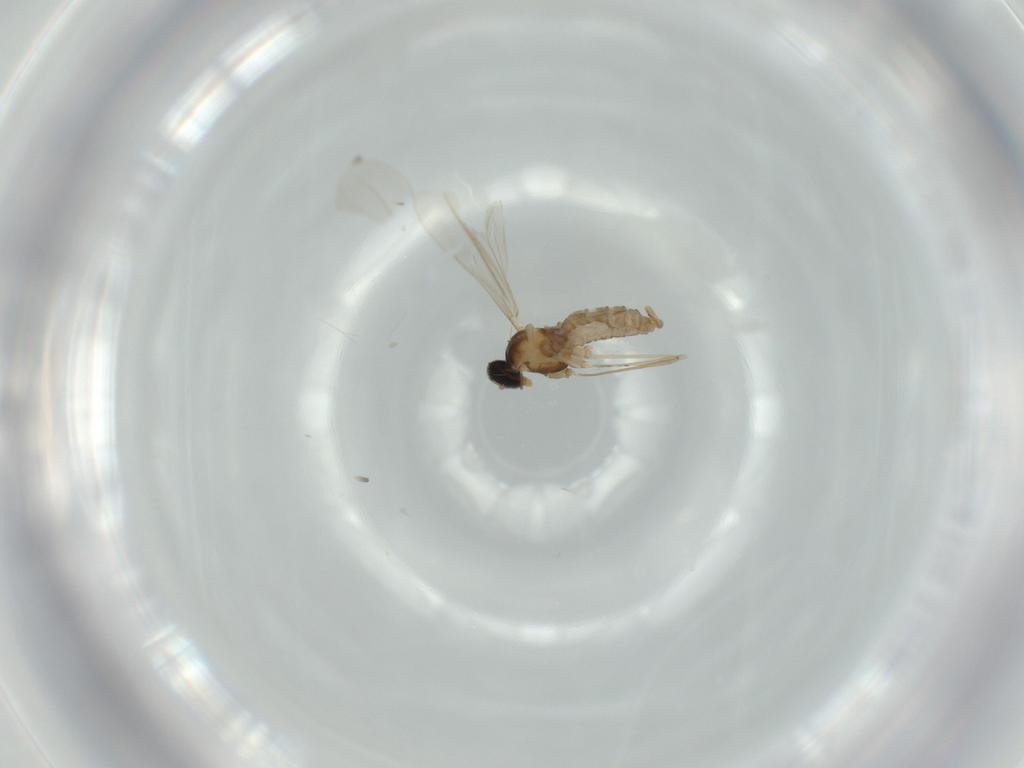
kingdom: Animalia
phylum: Arthropoda
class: Insecta
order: Diptera
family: Cecidomyiidae
